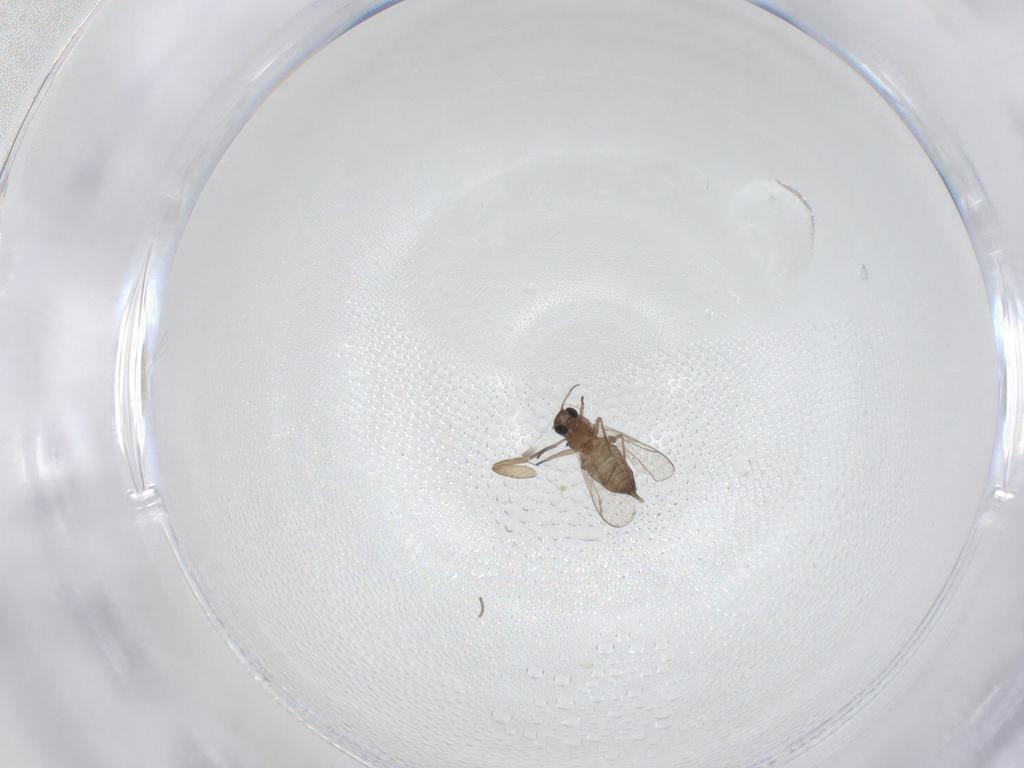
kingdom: Animalia
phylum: Arthropoda
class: Insecta
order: Diptera
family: Chironomidae
